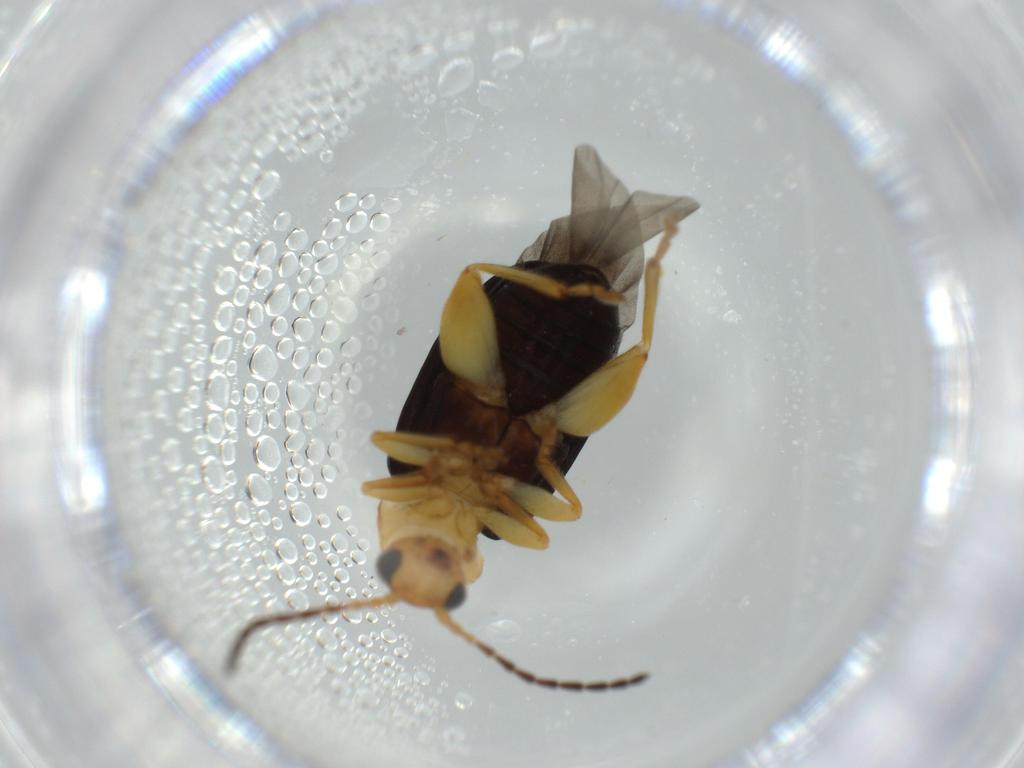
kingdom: Animalia
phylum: Arthropoda
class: Insecta
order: Coleoptera
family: Chrysomelidae
